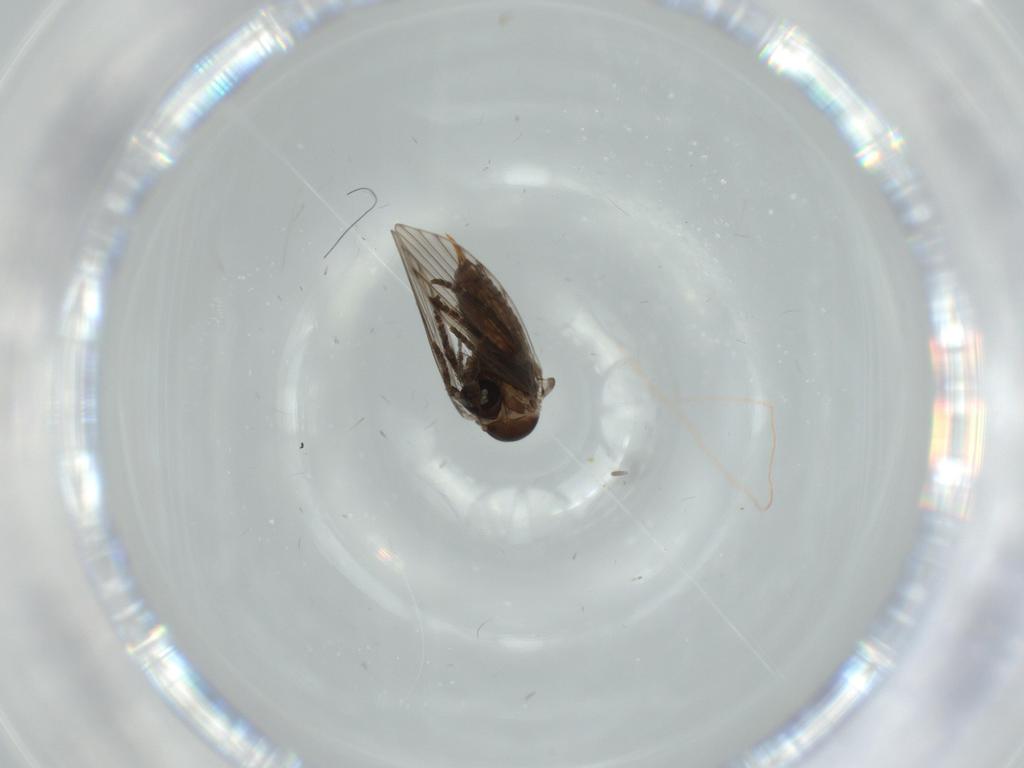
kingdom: Animalia
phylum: Arthropoda
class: Insecta
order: Diptera
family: Psychodidae
